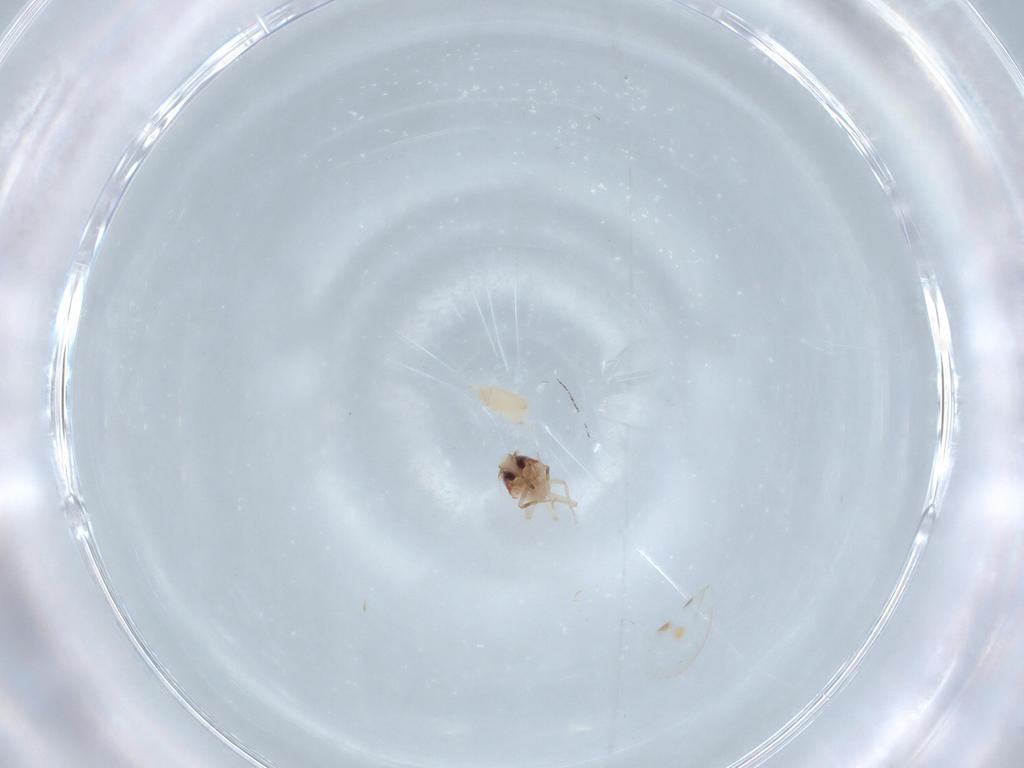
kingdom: Animalia
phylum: Arthropoda
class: Insecta
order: Hemiptera
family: Aleyrodidae
